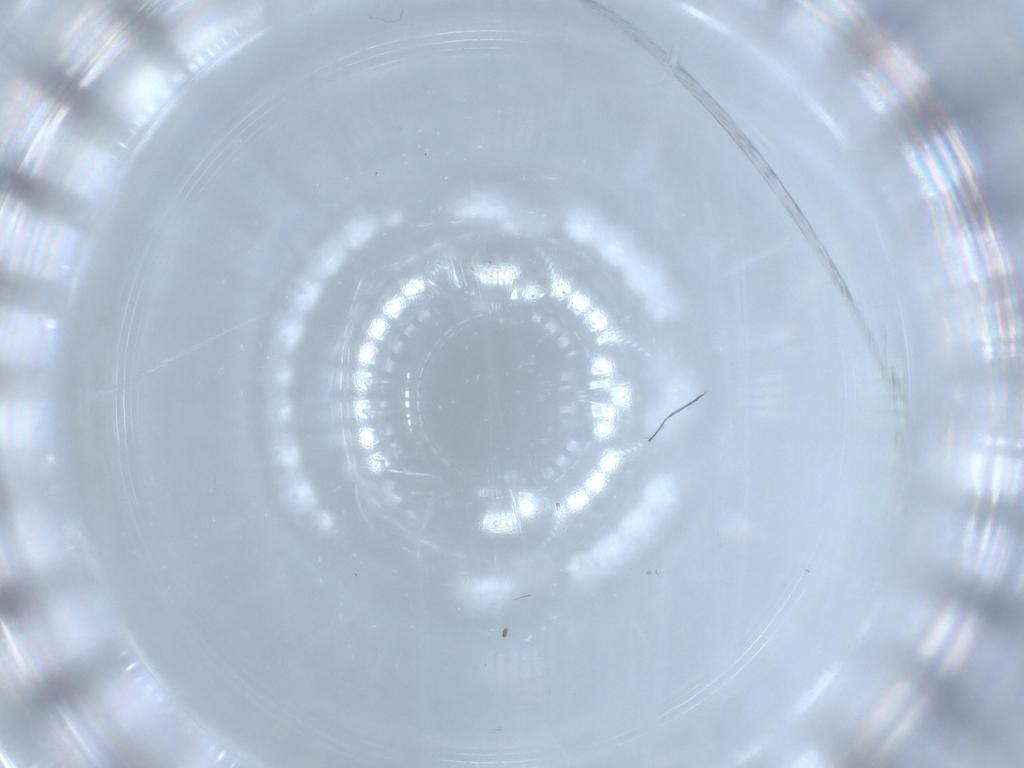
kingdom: Animalia
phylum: Arthropoda
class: Insecta
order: Diptera
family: Cecidomyiidae
